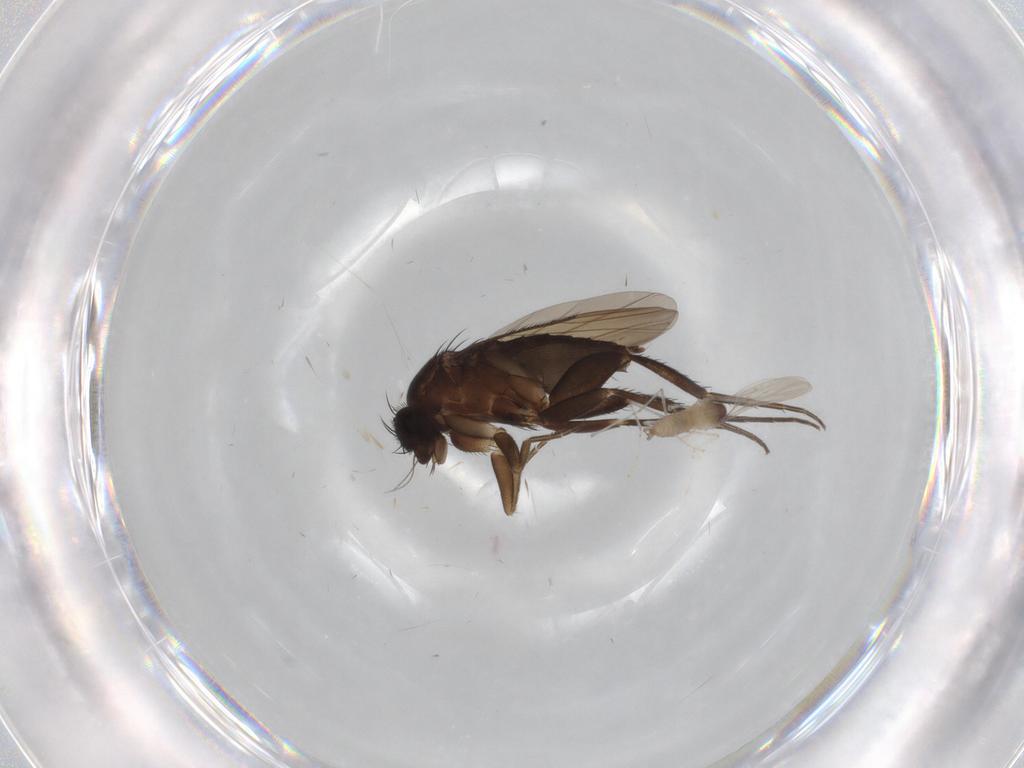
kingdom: Animalia
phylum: Arthropoda
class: Insecta
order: Diptera
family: Cecidomyiidae
